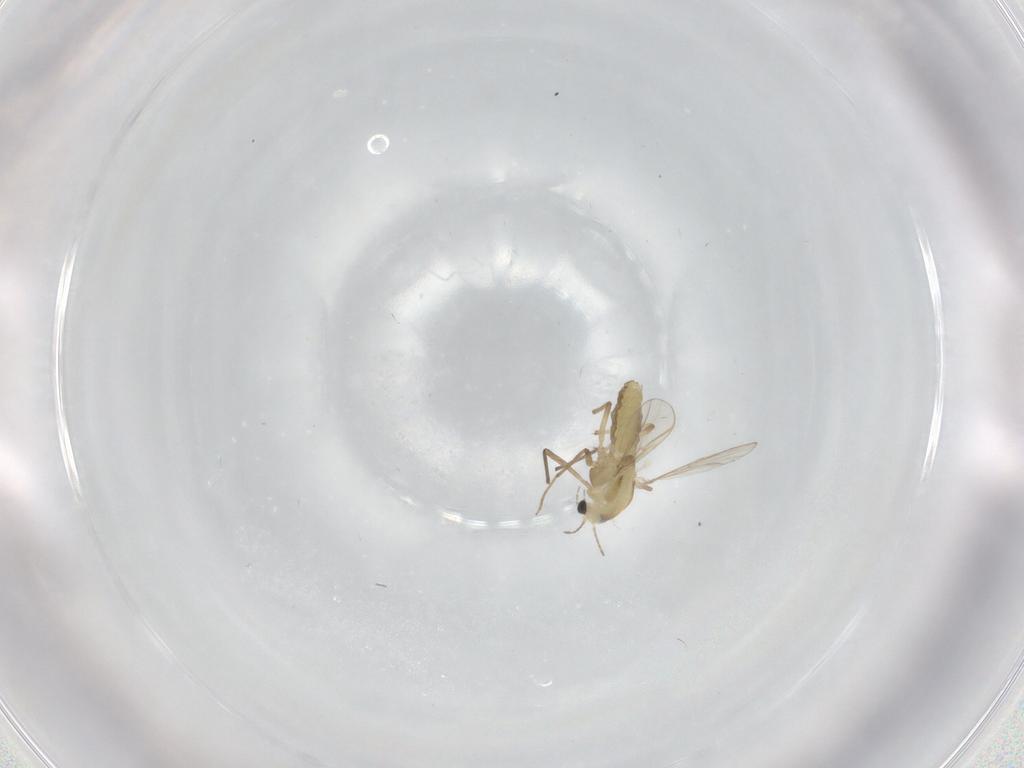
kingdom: Animalia
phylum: Arthropoda
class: Insecta
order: Diptera
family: Chironomidae
